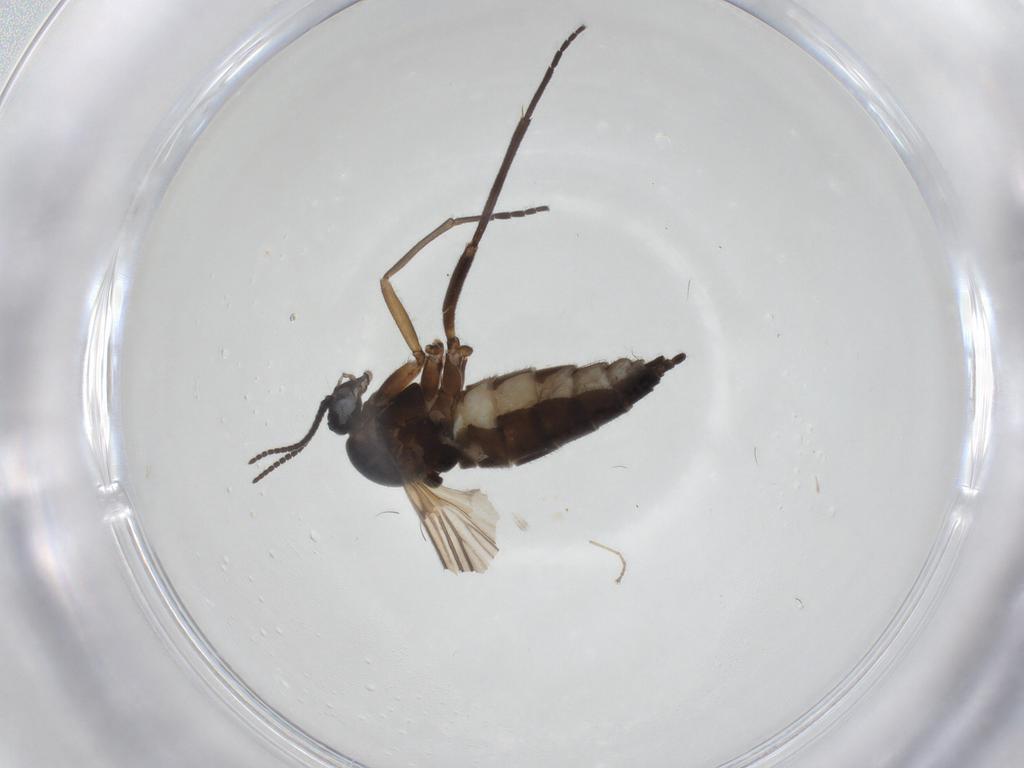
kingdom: Animalia
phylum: Arthropoda
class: Insecta
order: Diptera
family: Sciaridae
